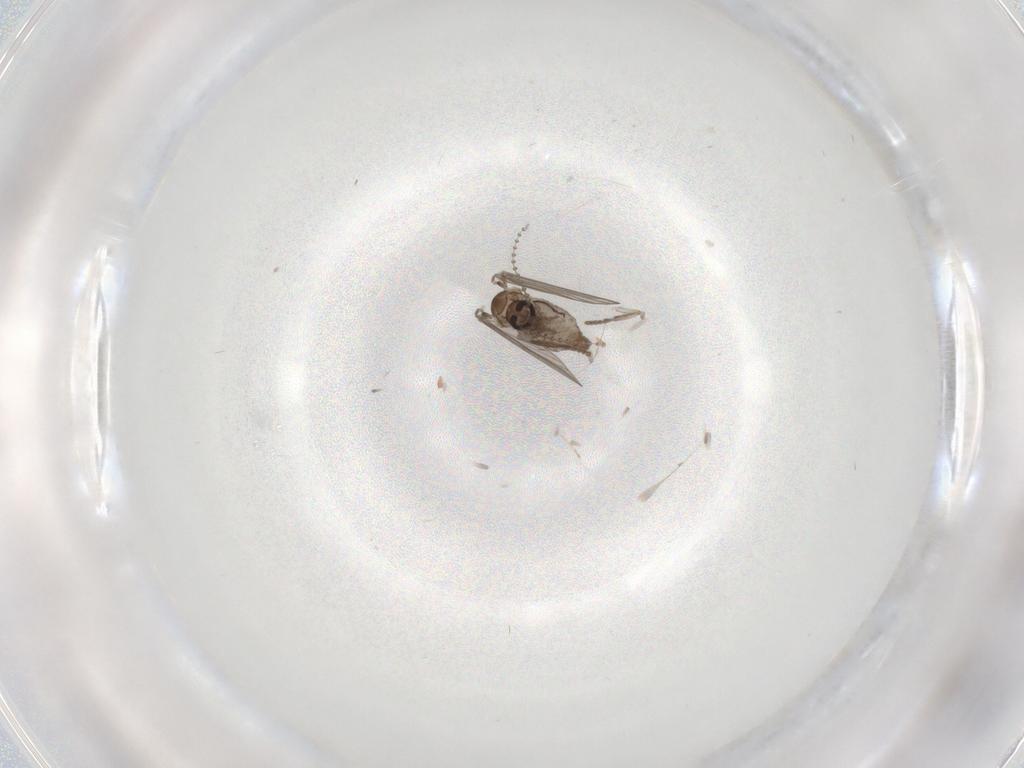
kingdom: Animalia
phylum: Arthropoda
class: Insecta
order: Diptera
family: Psychodidae
